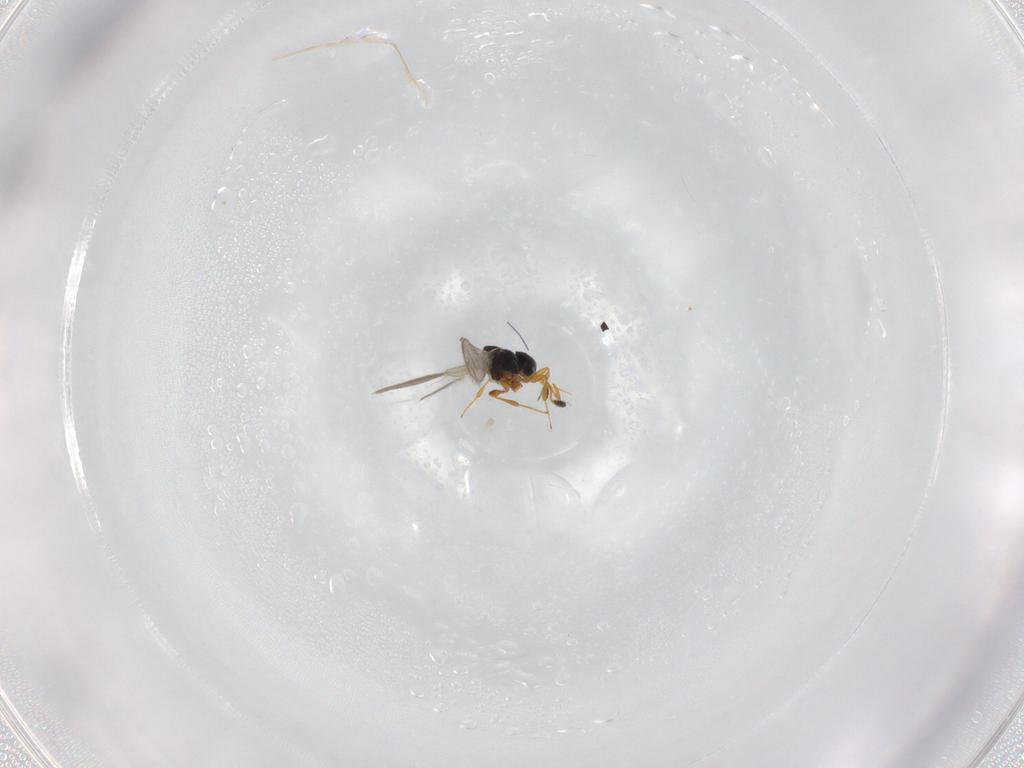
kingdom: Animalia
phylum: Arthropoda
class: Insecta
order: Hymenoptera
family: Platygastridae
